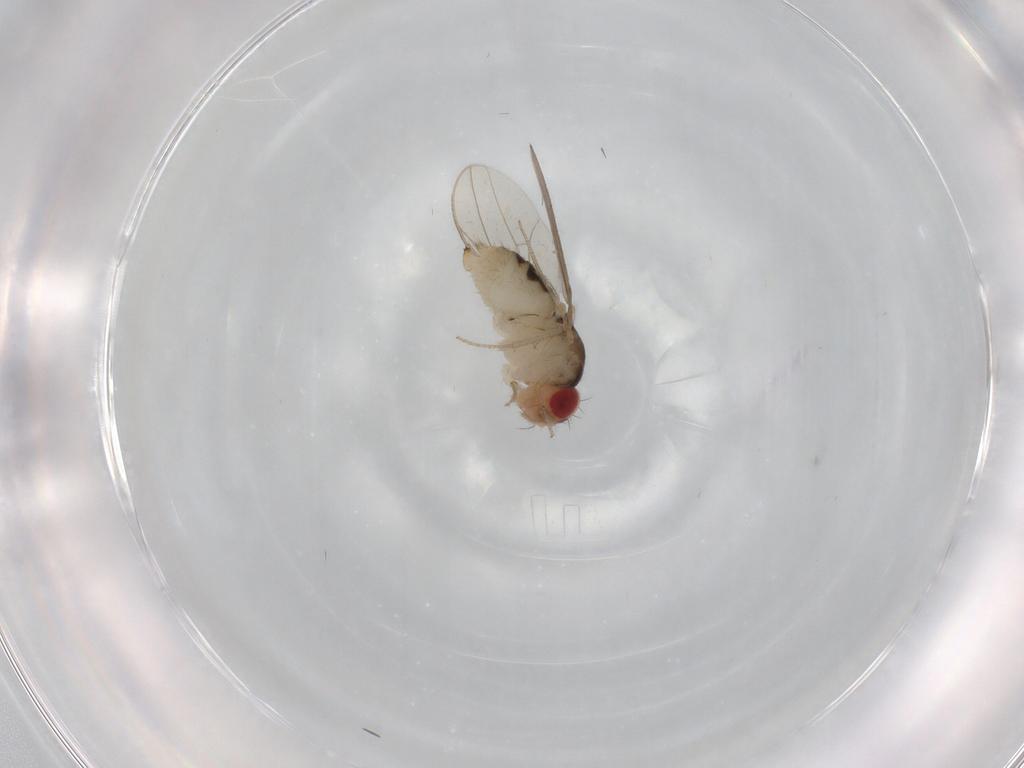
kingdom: Animalia
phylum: Arthropoda
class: Insecta
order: Diptera
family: Drosophilidae
